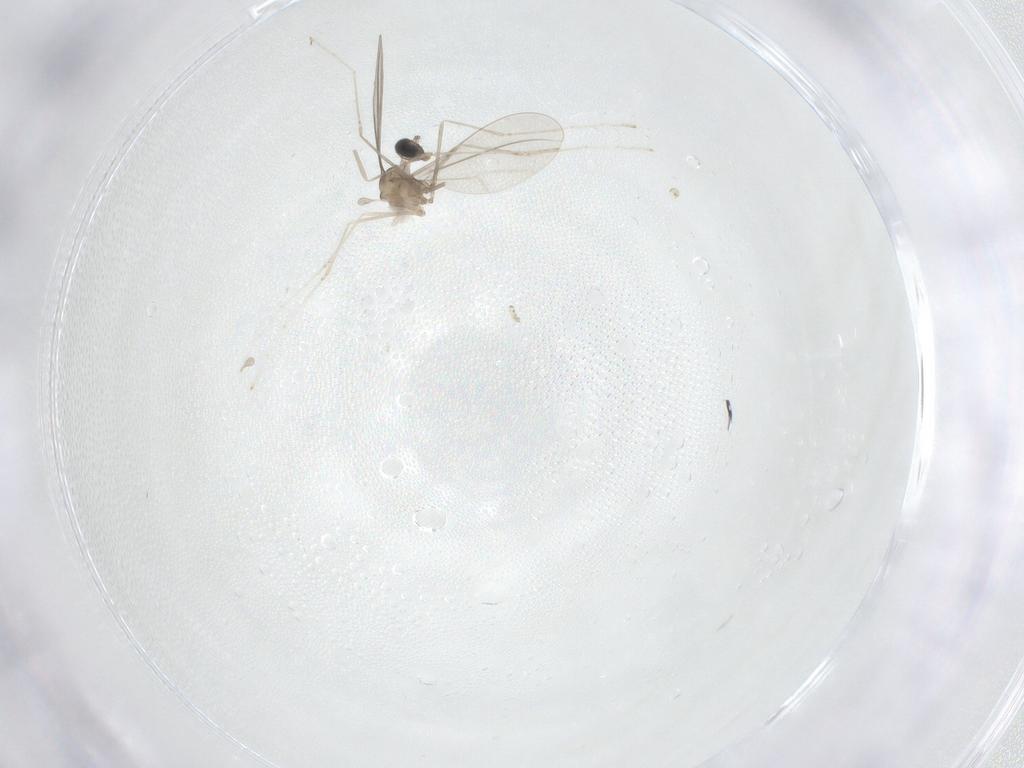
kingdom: Animalia
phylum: Arthropoda
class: Insecta
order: Diptera
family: Cecidomyiidae
